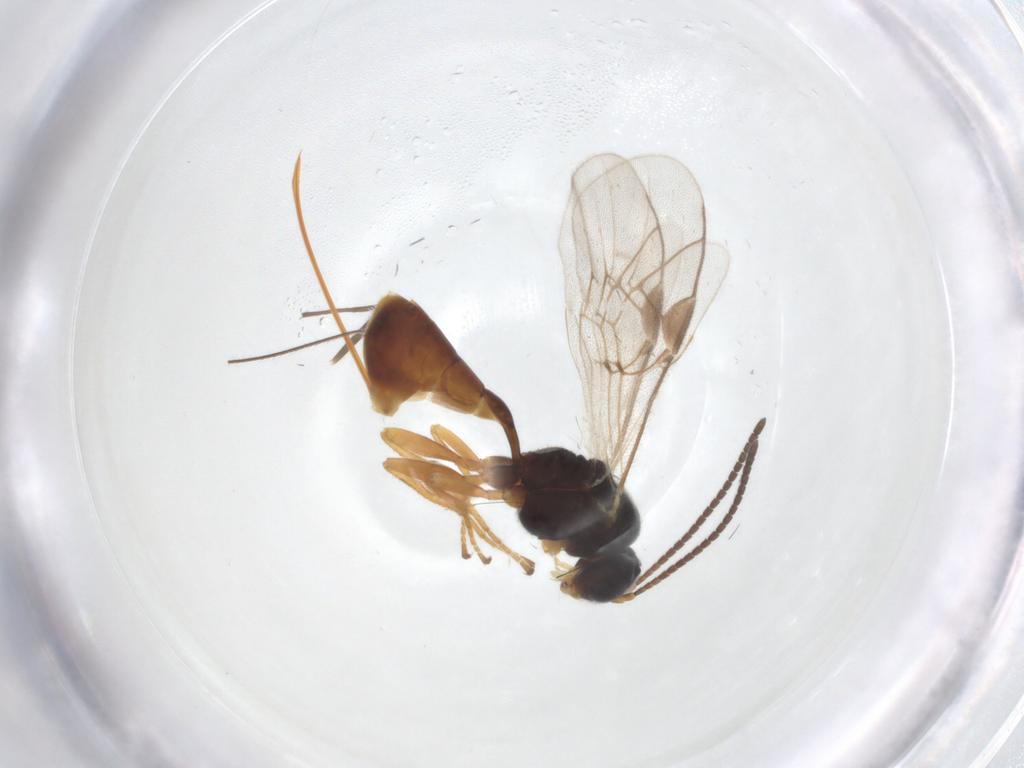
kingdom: Animalia
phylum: Arthropoda
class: Insecta
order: Hymenoptera
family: Ichneumonidae
